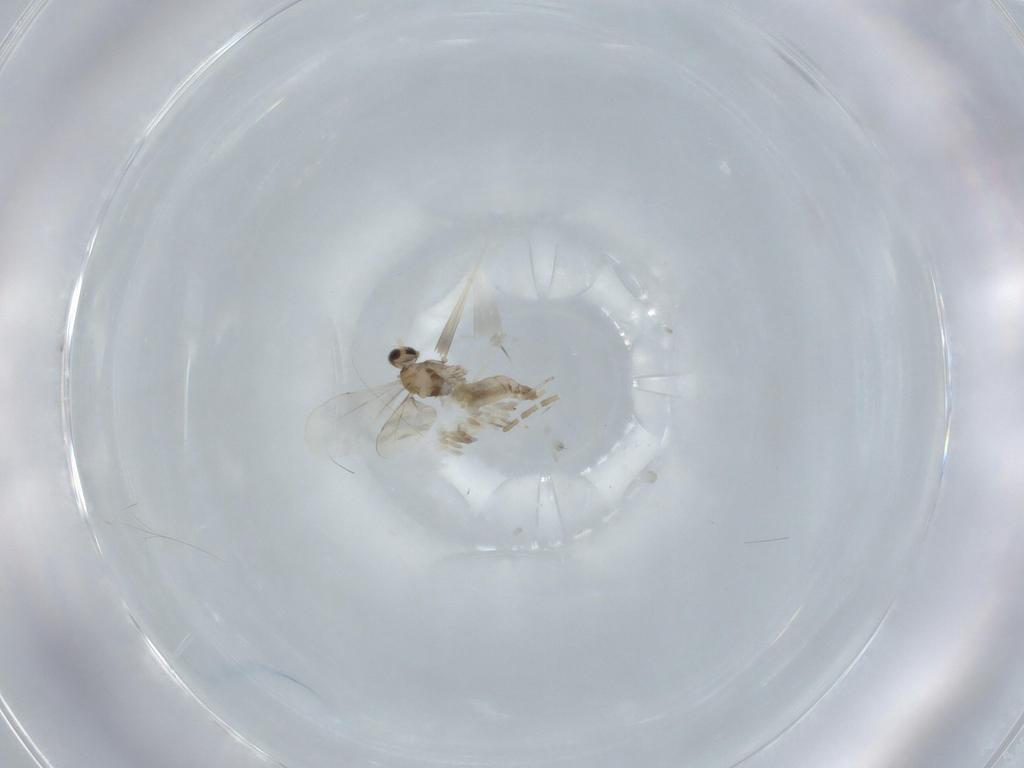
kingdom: Animalia
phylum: Arthropoda
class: Insecta
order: Diptera
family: Cecidomyiidae
